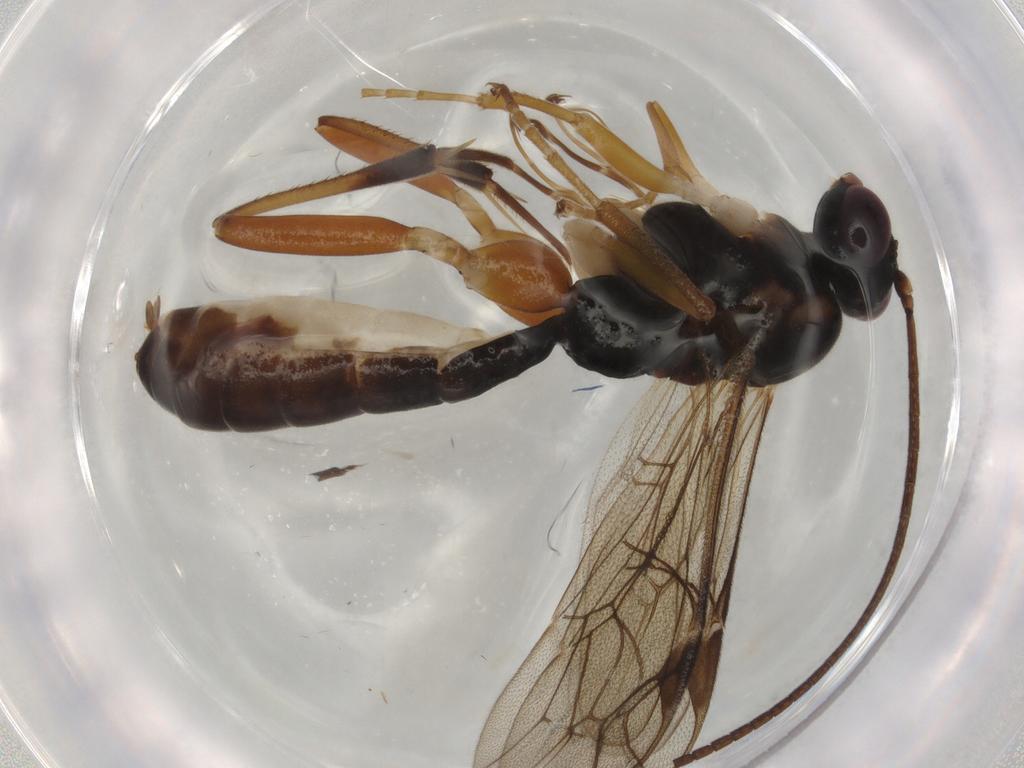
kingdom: Animalia
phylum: Arthropoda
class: Insecta
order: Hymenoptera
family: Ichneumonidae
